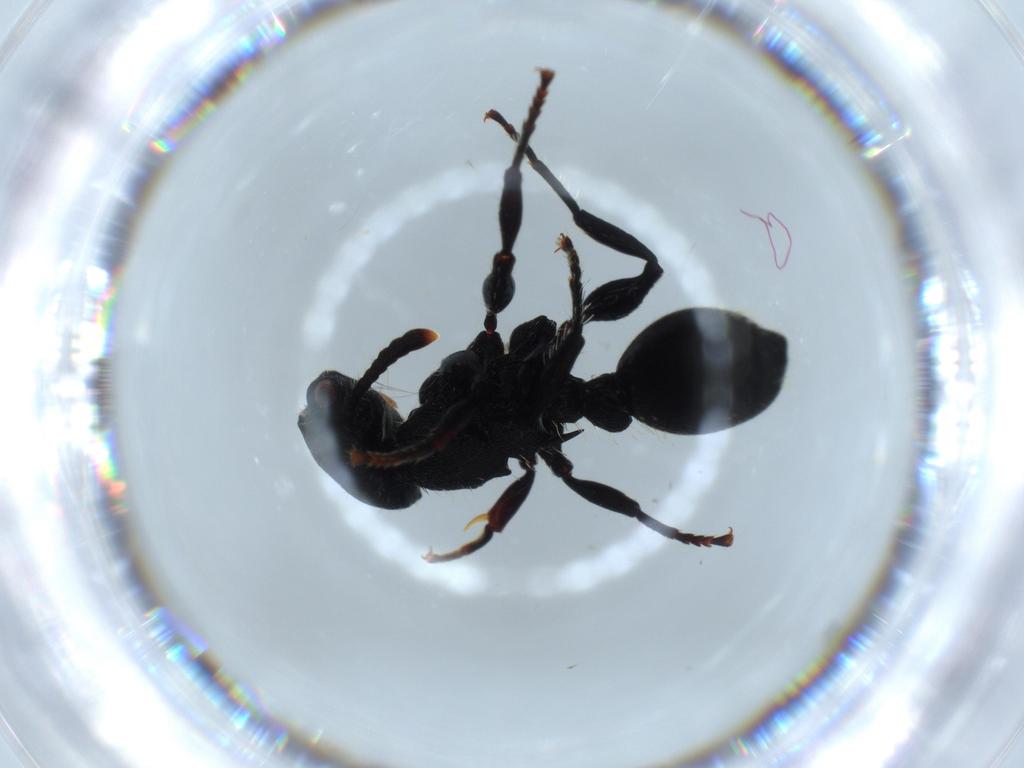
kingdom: Animalia
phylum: Arthropoda
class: Insecta
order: Hymenoptera
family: Formicidae
